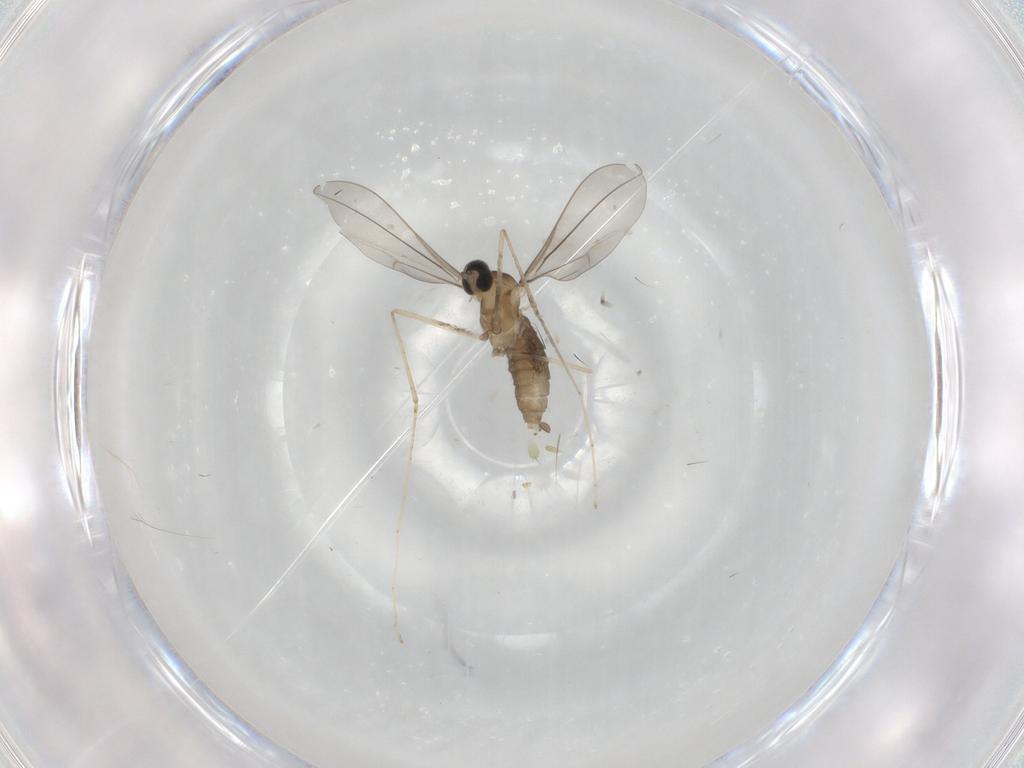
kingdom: Animalia
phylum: Arthropoda
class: Insecta
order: Diptera
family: Cecidomyiidae
